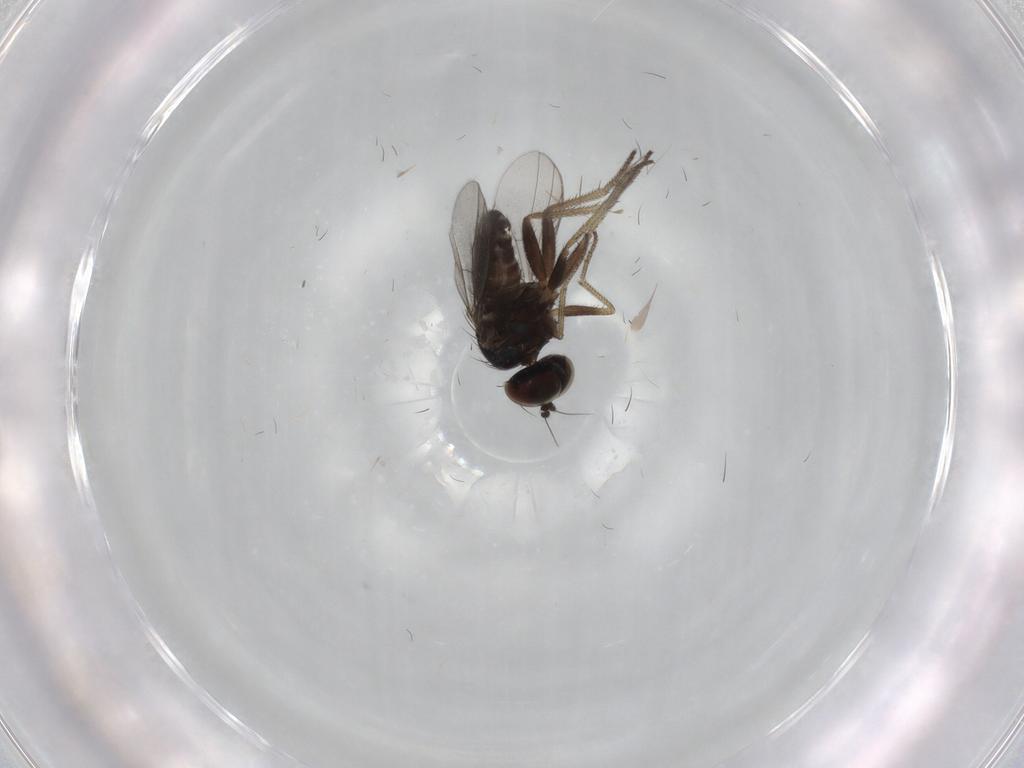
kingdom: Animalia
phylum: Arthropoda
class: Insecta
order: Diptera
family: Dolichopodidae
